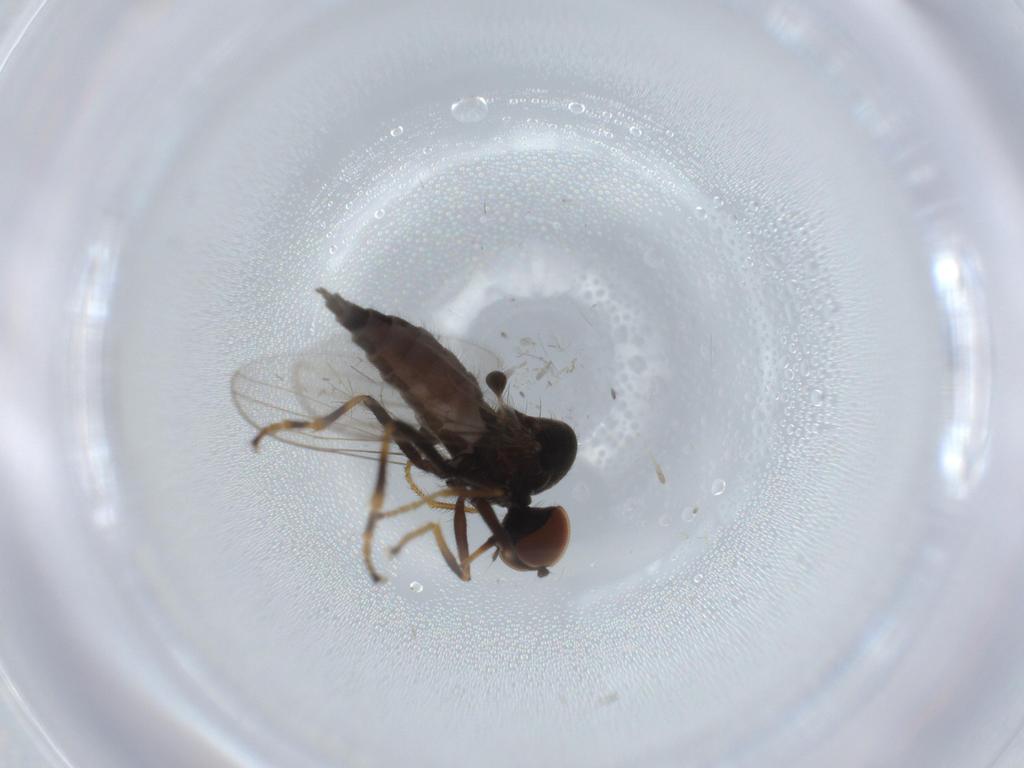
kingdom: Animalia
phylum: Arthropoda
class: Insecta
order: Diptera
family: Hybotidae
